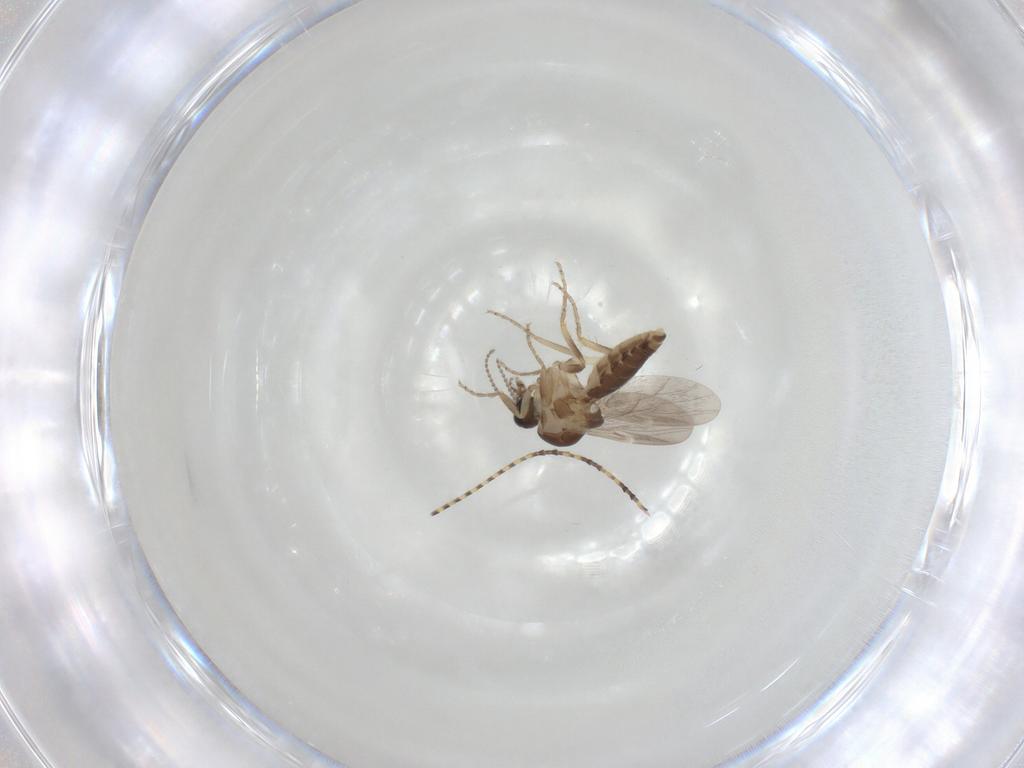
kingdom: Animalia
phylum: Arthropoda
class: Insecta
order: Diptera
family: Ceratopogonidae
